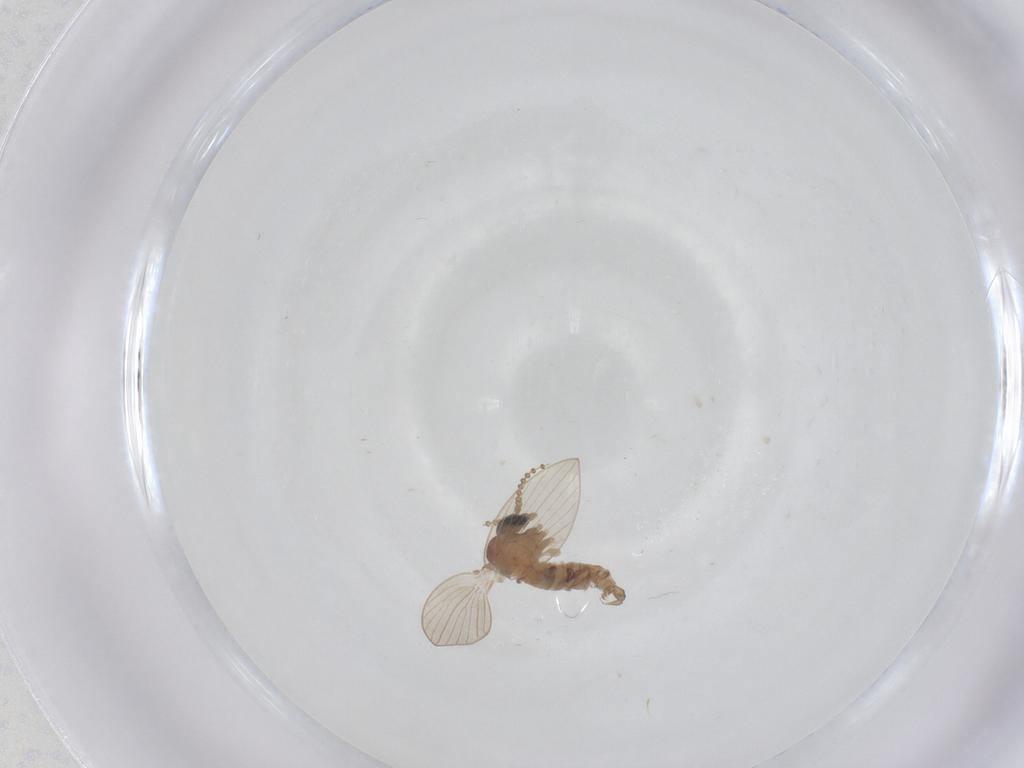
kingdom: Animalia
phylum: Arthropoda
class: Insecta
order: Diptera
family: Psychodidae
